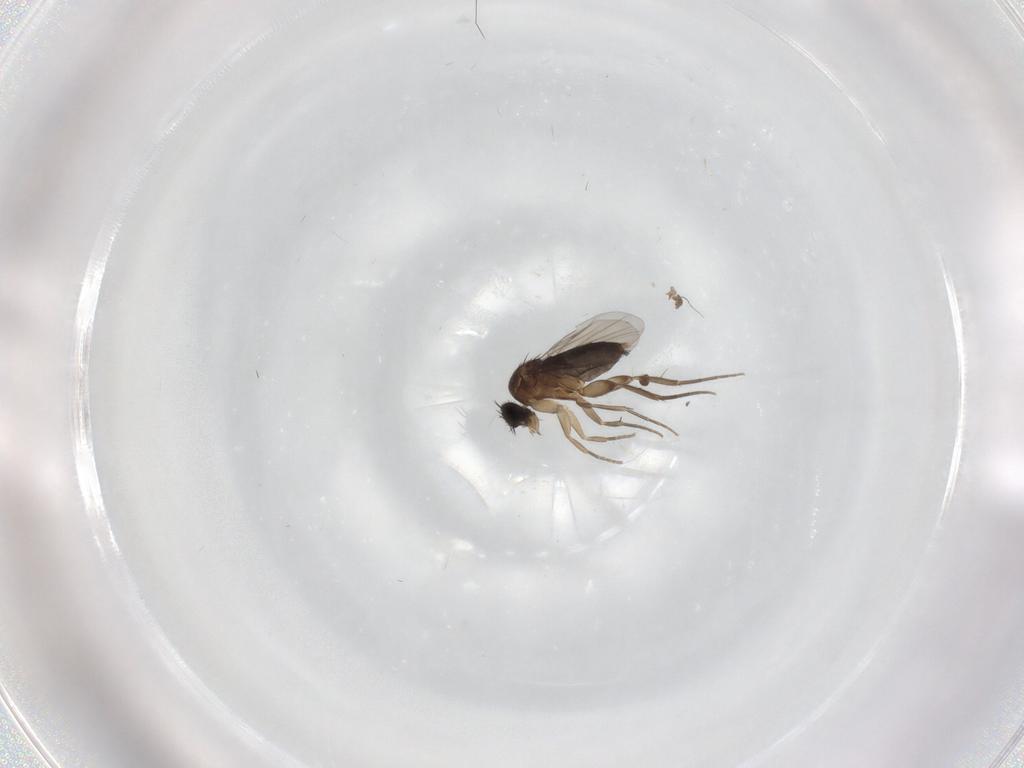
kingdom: Animalia
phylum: Arthropoda
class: Insecta
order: Diptera
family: Phoridae
